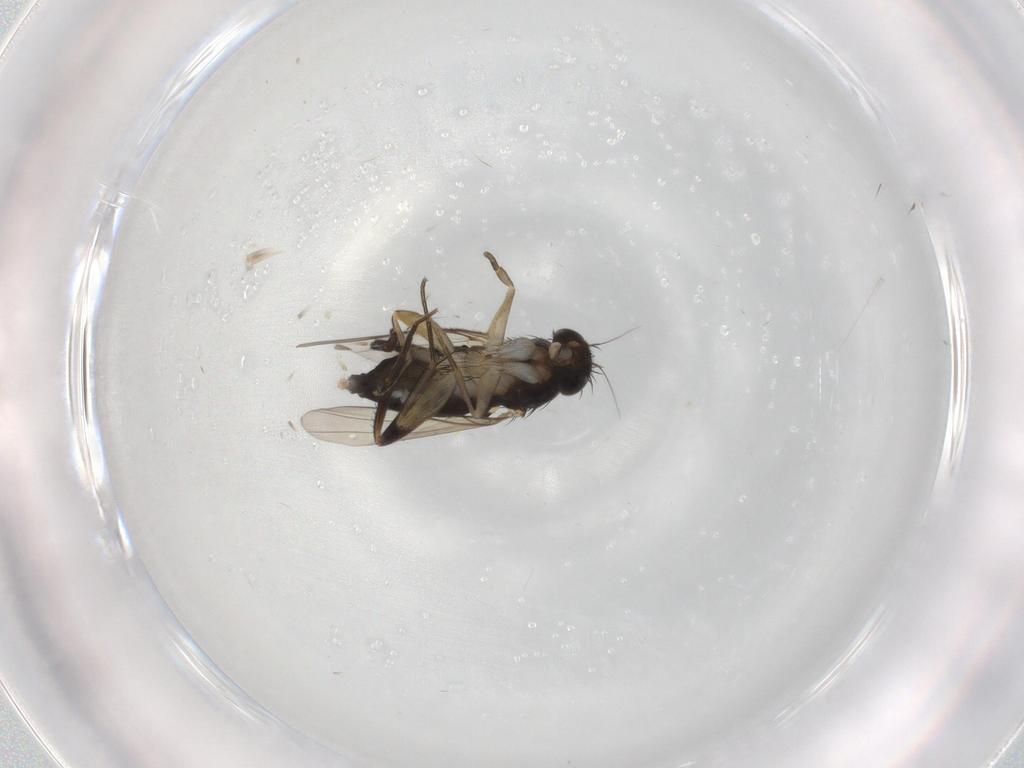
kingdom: Animalia
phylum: Arthropoda
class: Insecta
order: Diptera
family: Phoridae
